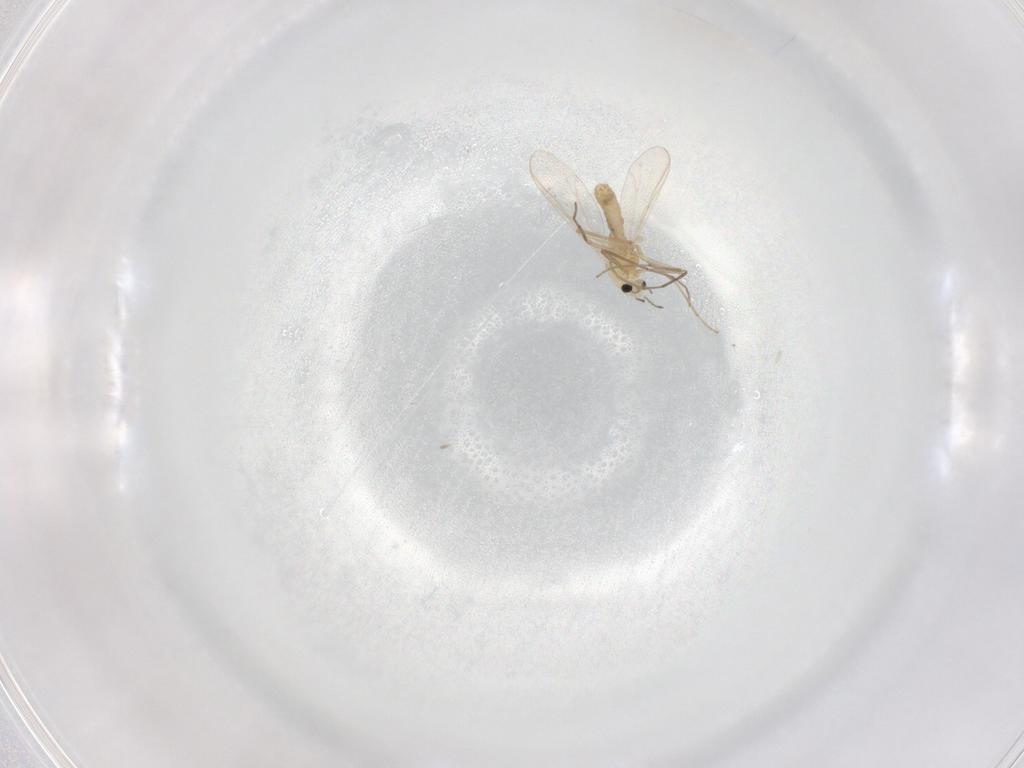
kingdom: Animalia
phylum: Arthropoda
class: Insecta
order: Diptera
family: Chironomidae
